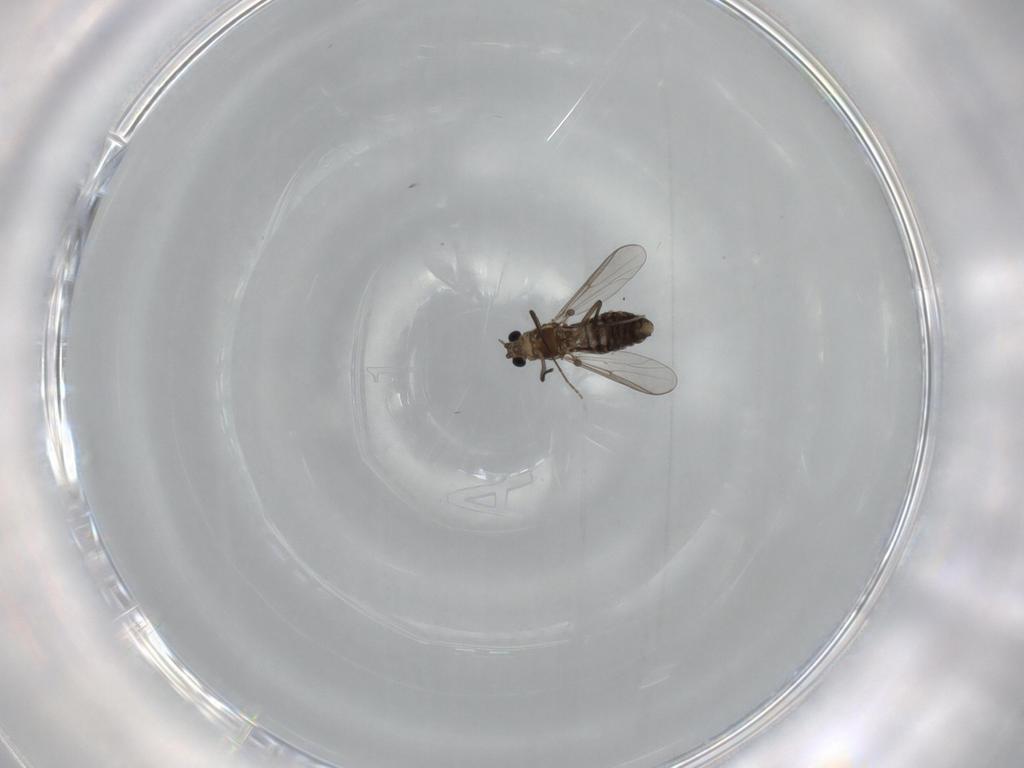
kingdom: Animalia
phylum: Arthropoda
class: Insecta
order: Diptera
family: Chironomidae
